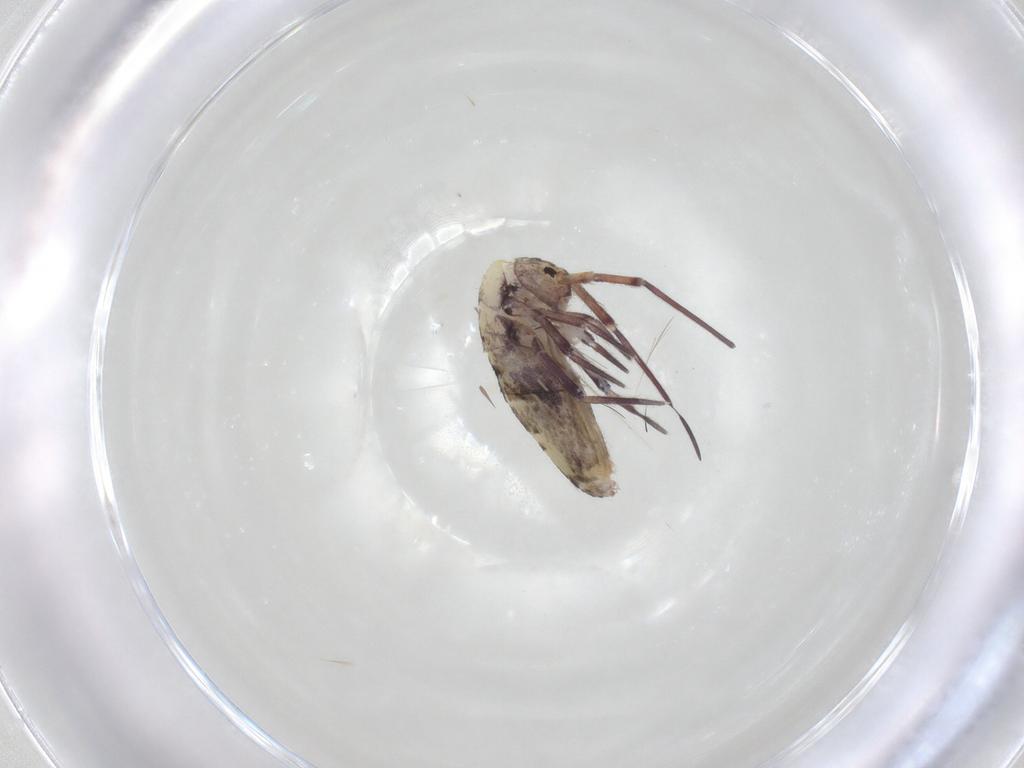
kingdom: Animalia
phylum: Arthropoda
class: Collembola
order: Entomobryomorpha
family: Entomobryidae
